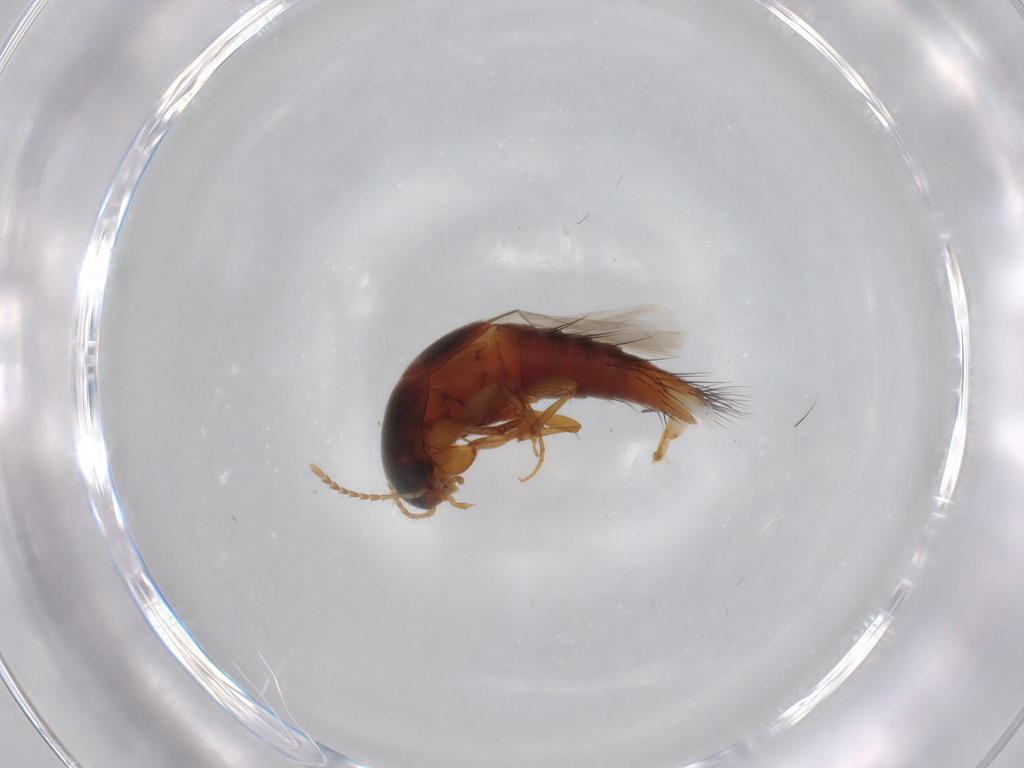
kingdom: Animalia
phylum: Arthropoda
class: Insecta
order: Coleoptera
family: Staphylinidae
